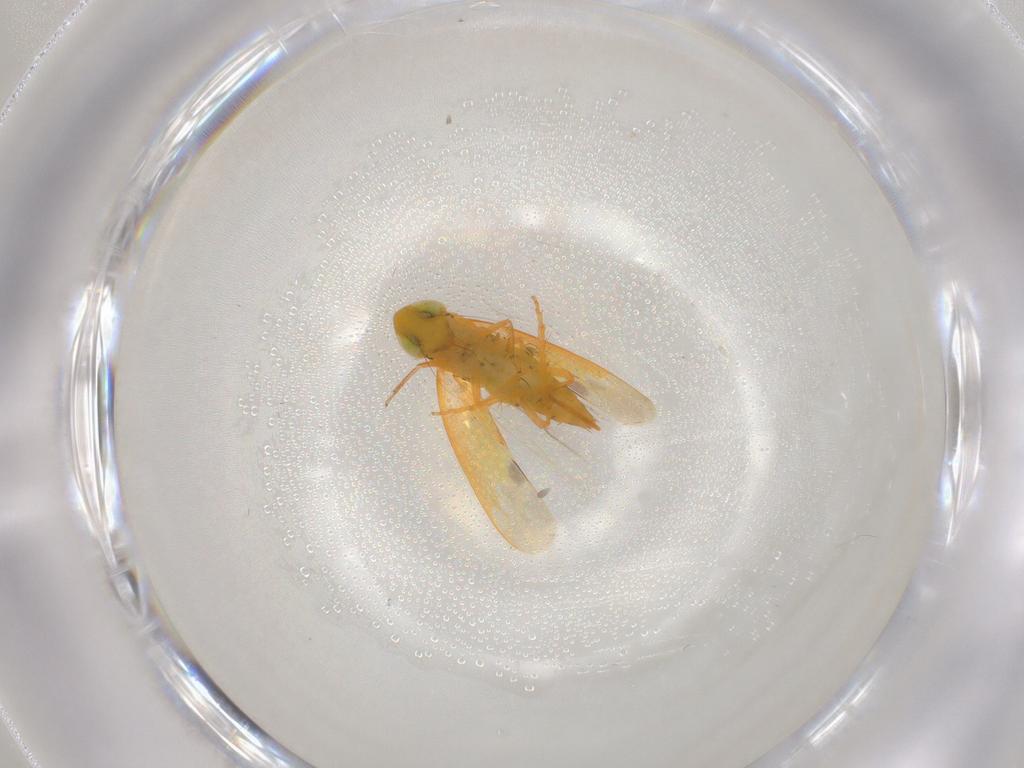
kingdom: Animalia
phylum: Arthropoda
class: Insecta
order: Hemiptera
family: Cicadellidae
